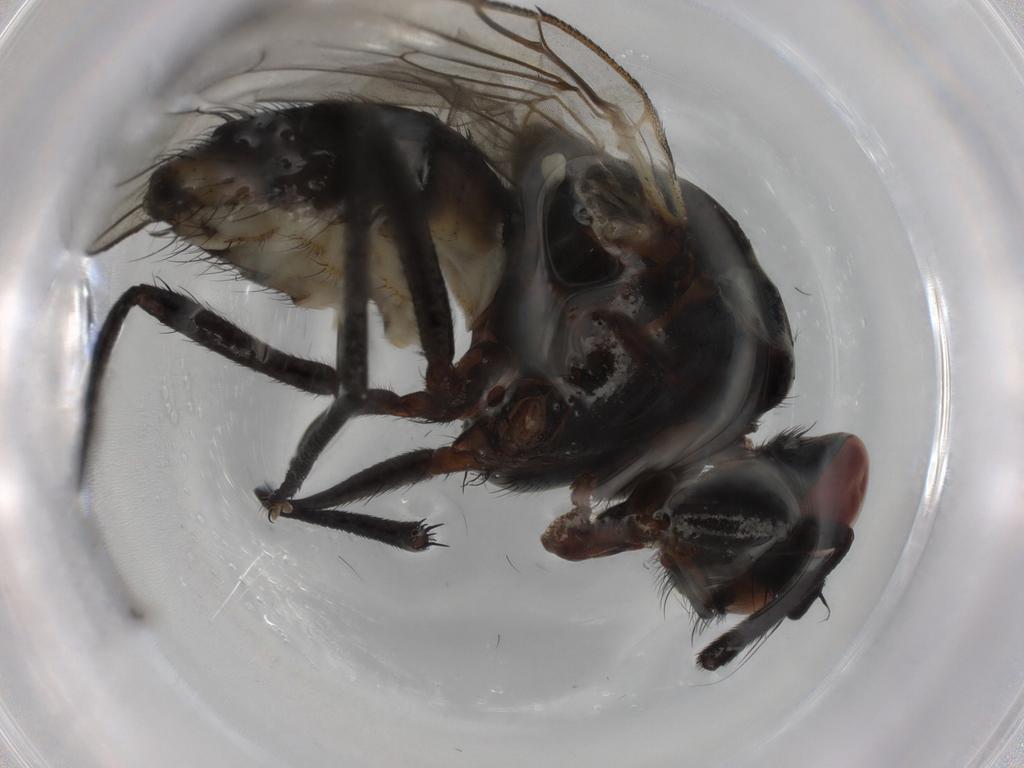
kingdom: Animalia
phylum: Arthropoda
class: Insecta
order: Diptera
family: Anthomyiidae
